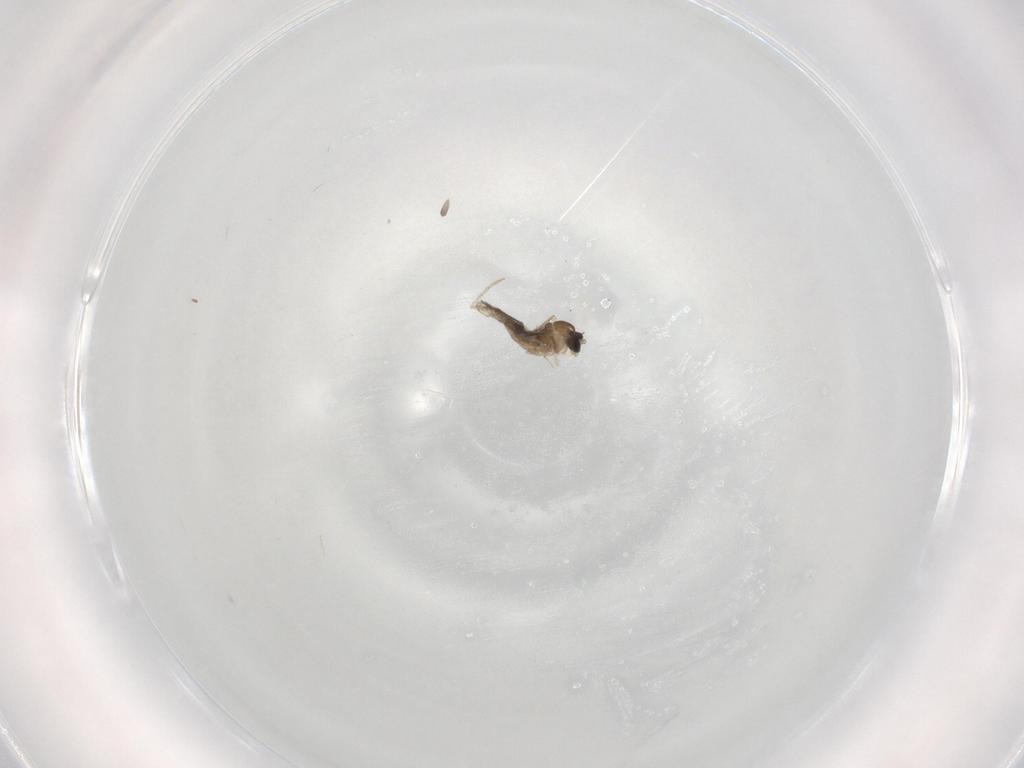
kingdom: Animalia
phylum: Arthropoda
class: Insecta
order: Diptera
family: Cecidomyiidae
